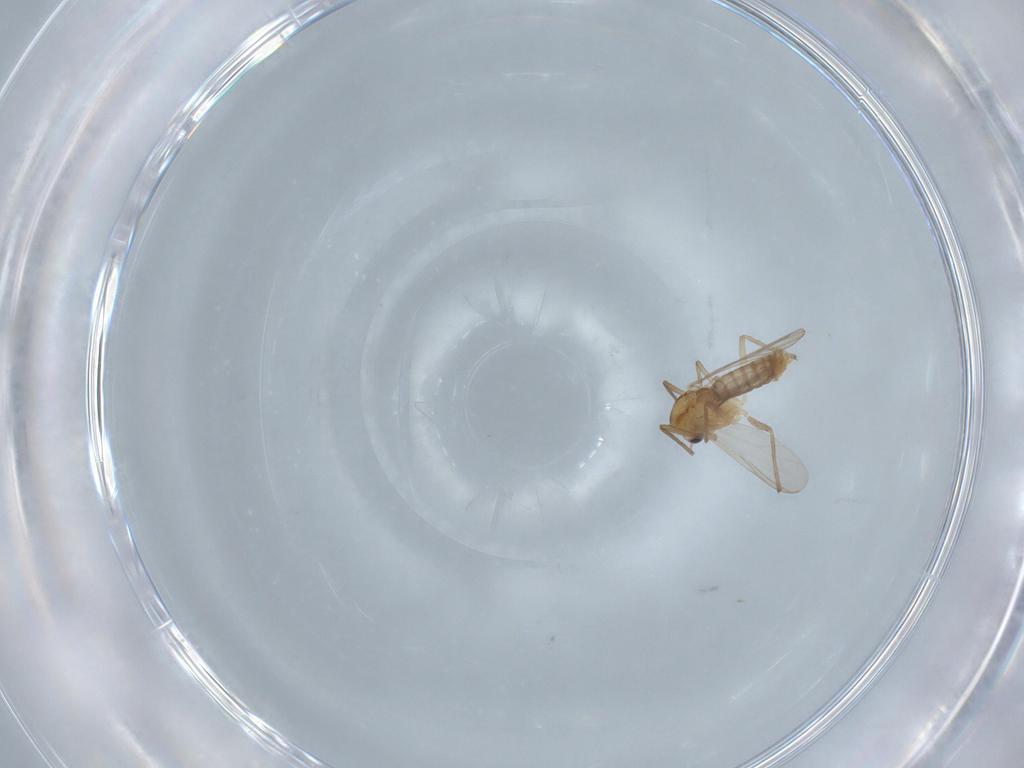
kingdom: Animalia
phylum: Arthropoda
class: Insecta
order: Diptera
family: Chironomidae
